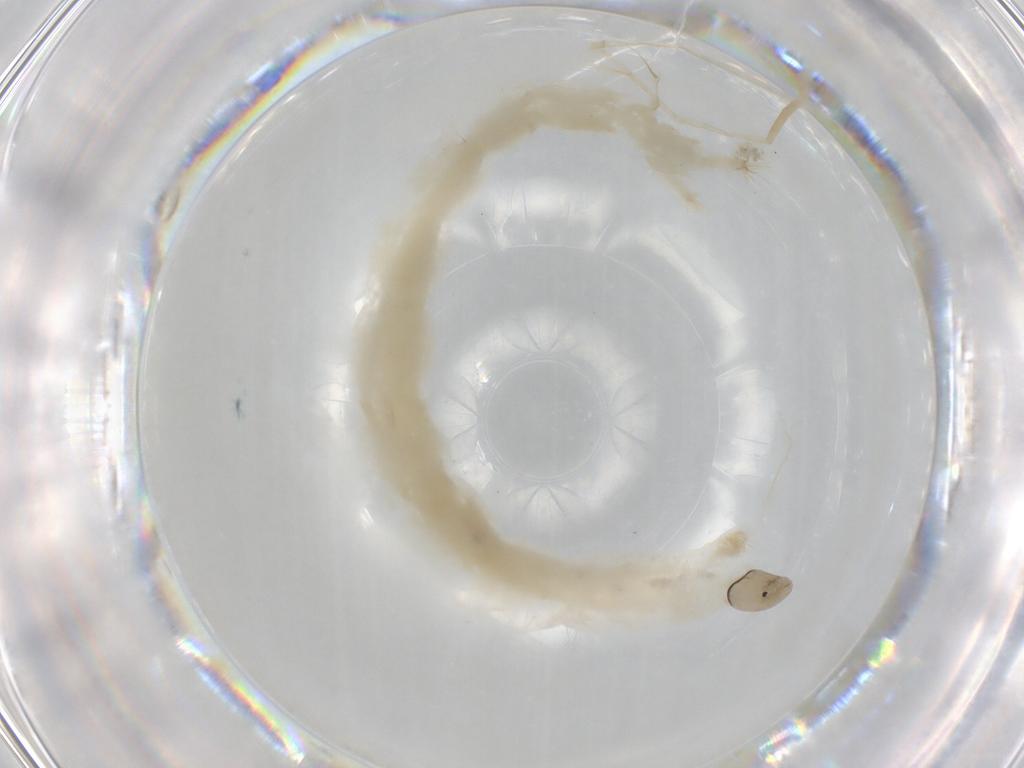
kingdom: Animalia
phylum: Arthropoda
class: Insecta
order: Diptera
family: Chironomidae
